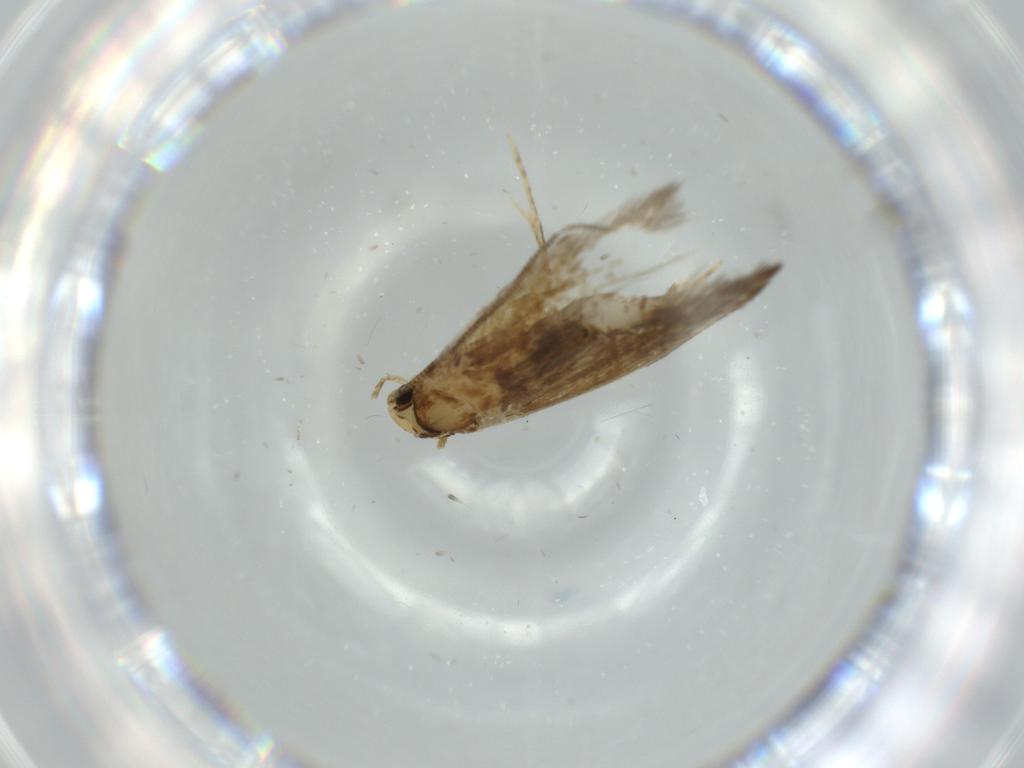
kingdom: Animalia
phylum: Arthropoda
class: Insecta
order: Lepidoptera
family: Tineidae
